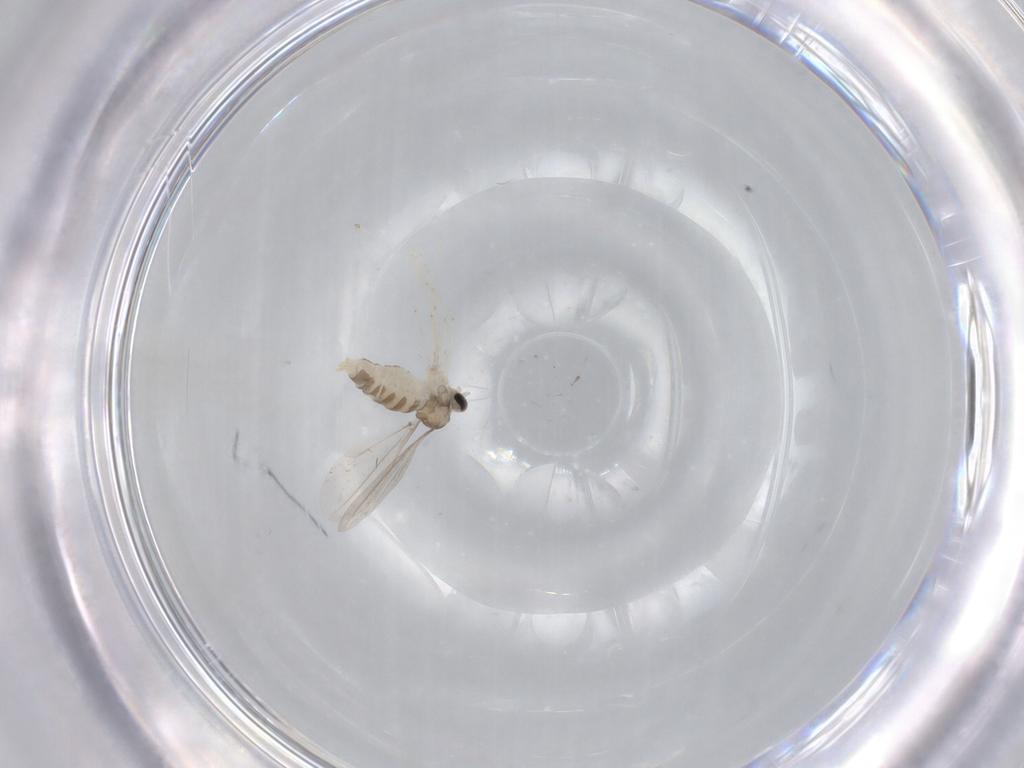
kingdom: Animalia
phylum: Arthropoda
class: Insecta
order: Diptera
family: Cecidomyiidae
